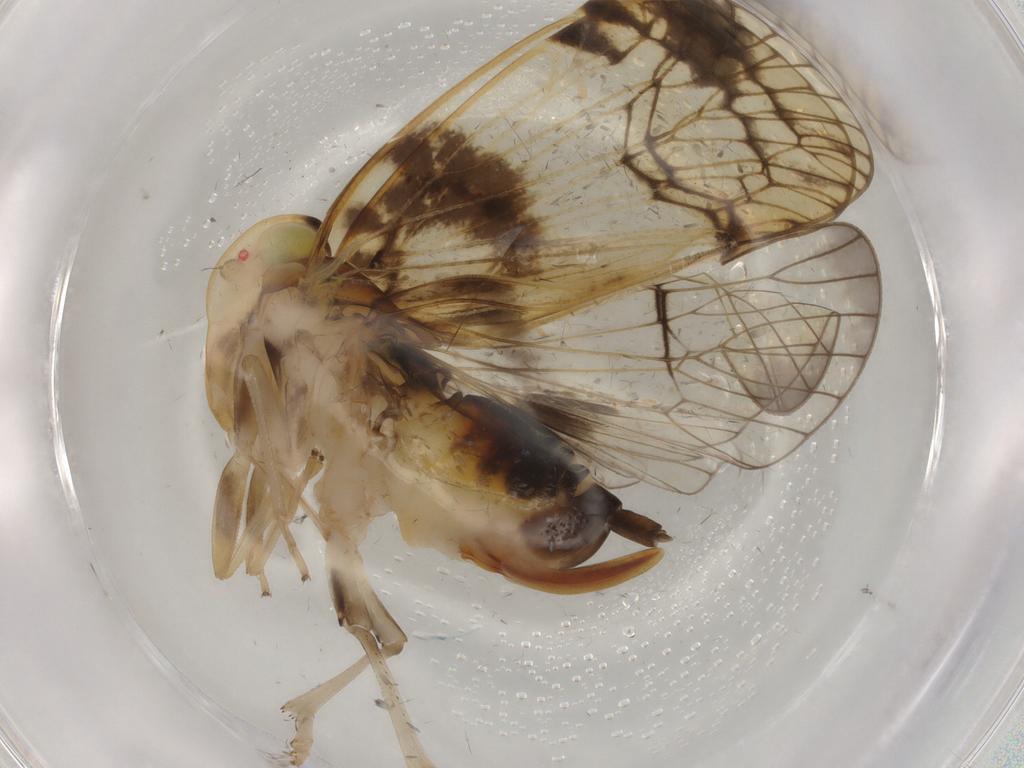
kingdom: Animalia
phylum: Arthropoda
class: Insecta
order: Hemiptera
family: Cixiidae
